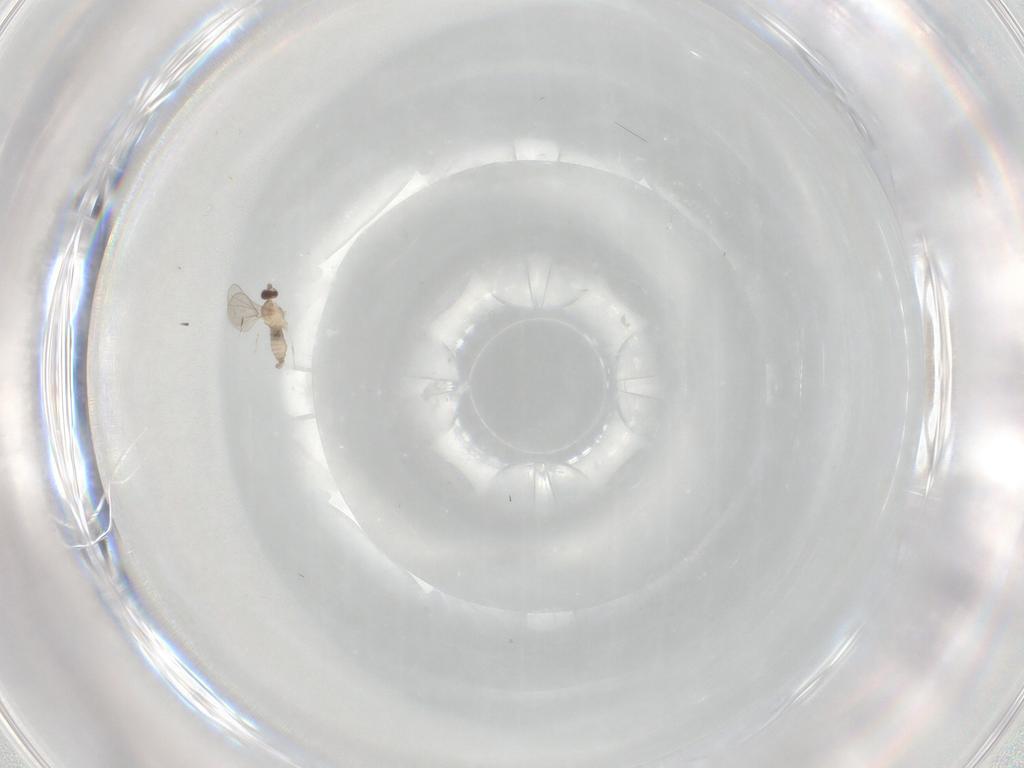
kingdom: Animalia
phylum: Arthropoda
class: Insecta
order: Diptera
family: Cecidomyiidae
